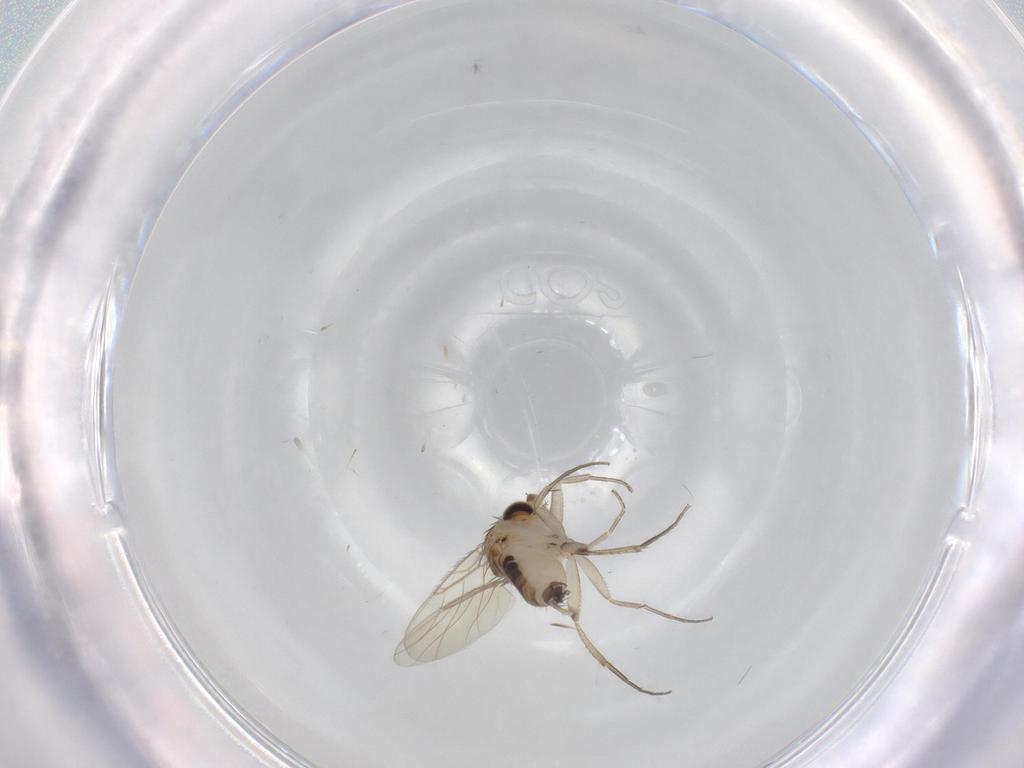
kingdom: Animalia
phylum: Arthropoda
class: Insecta
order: Diptera
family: Phoridae
